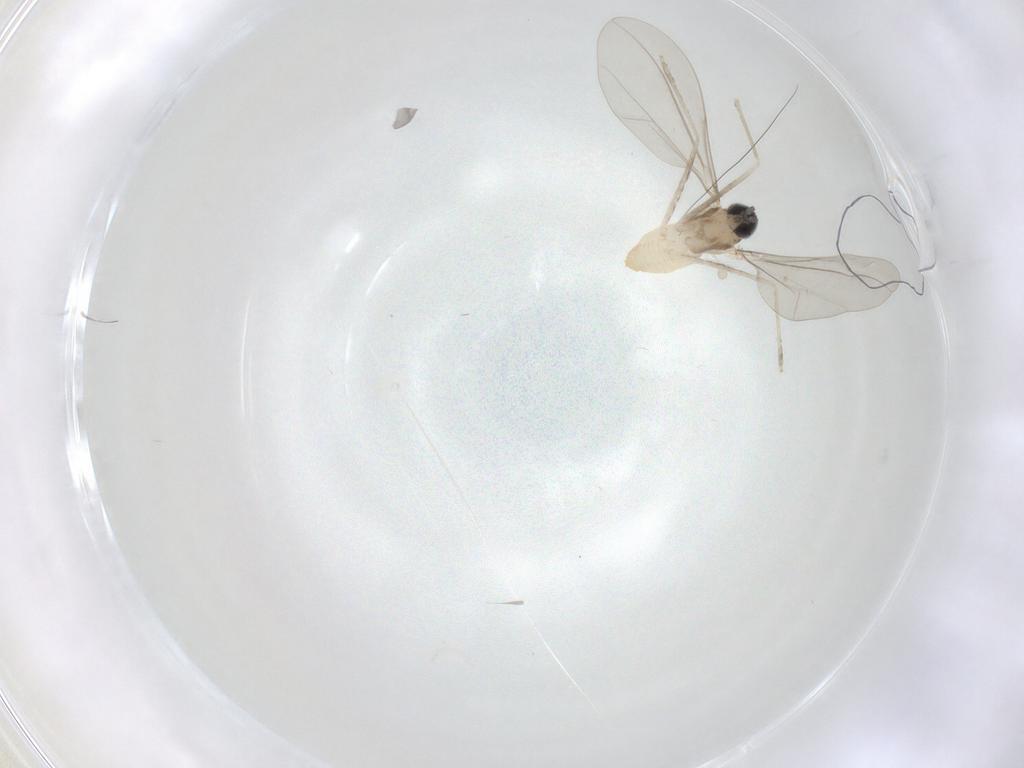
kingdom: Animalia
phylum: Arthropoda
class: Insecta
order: Diptera
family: Cecidomyiidae
